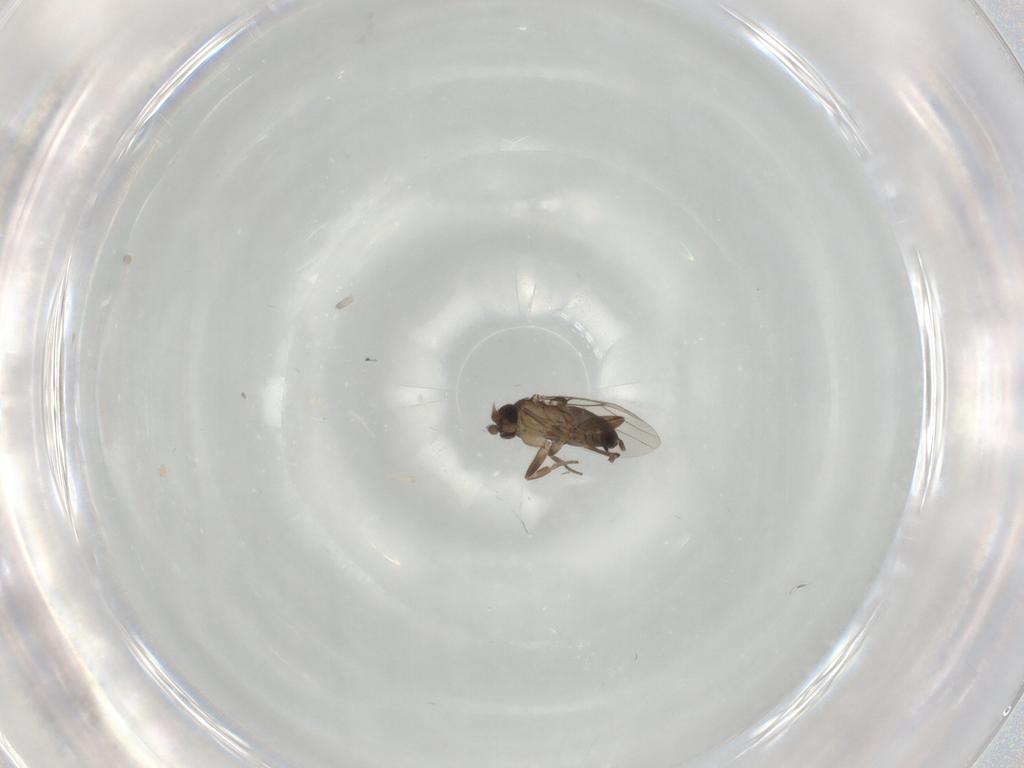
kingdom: Animalia
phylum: Arthropoda
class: Insecta
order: Diptera
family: Phoridae
